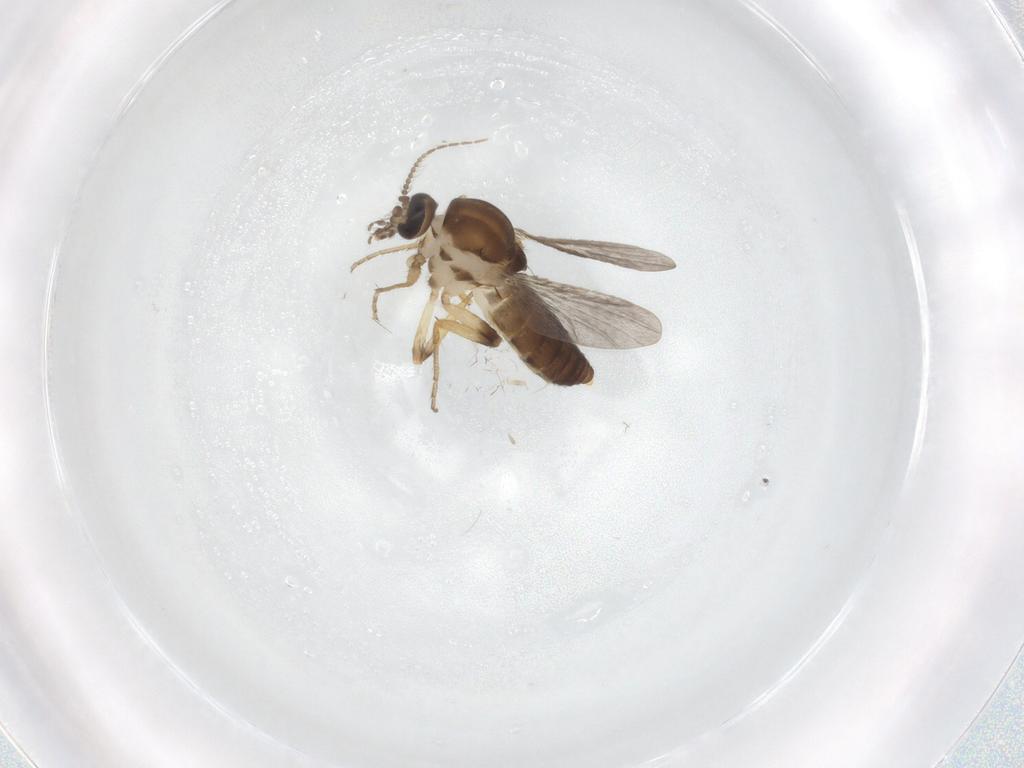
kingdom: Animalia
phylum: Arthropoda
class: Insecta
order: Diptera
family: Ceratopogonidae
